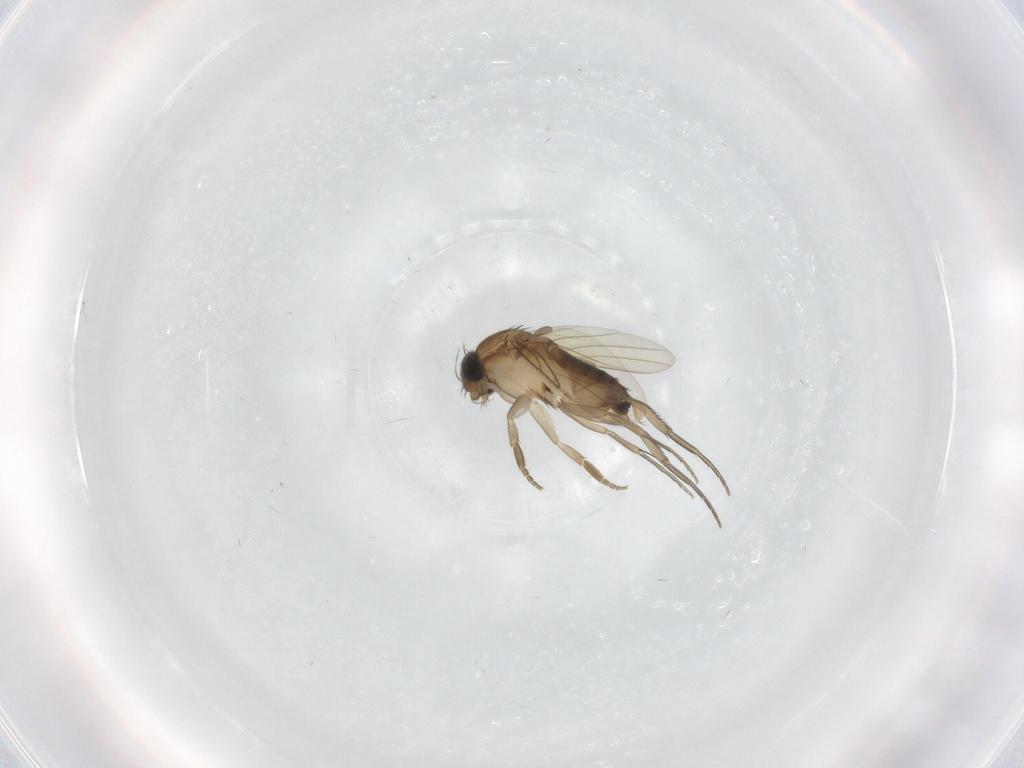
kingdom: Animalia
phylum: Arthropoda
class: Insecta
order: Diptera
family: Phoridae
